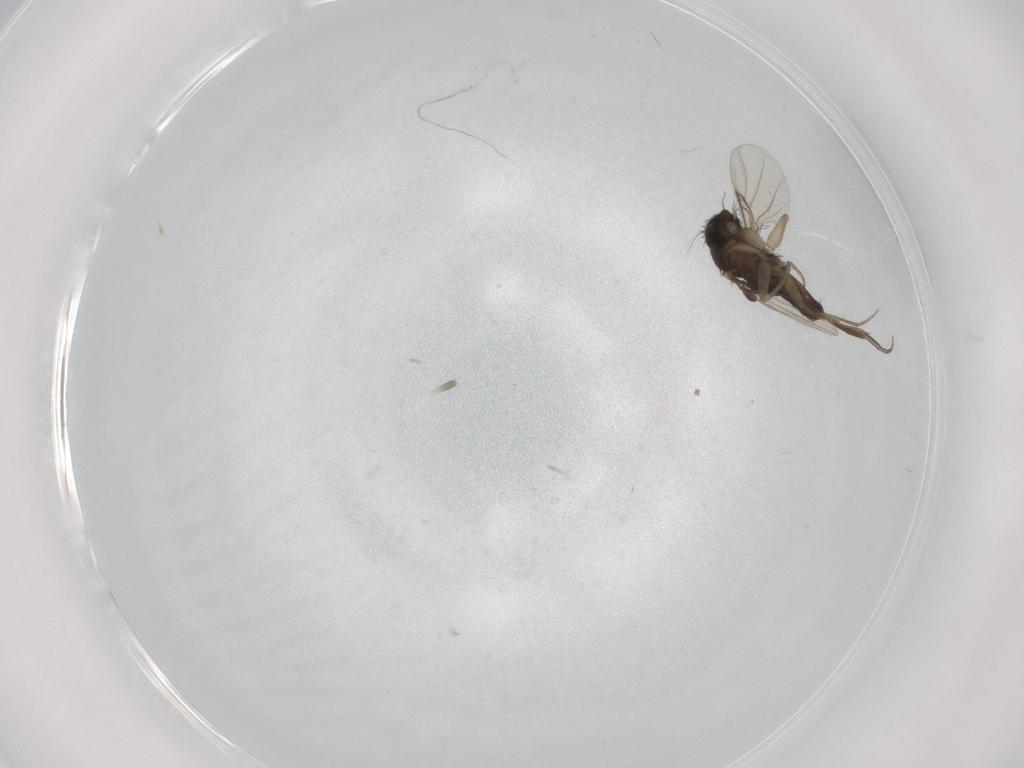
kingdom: Animalia
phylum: Arthropoda
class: Insecta
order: Diptera
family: Phoridae
